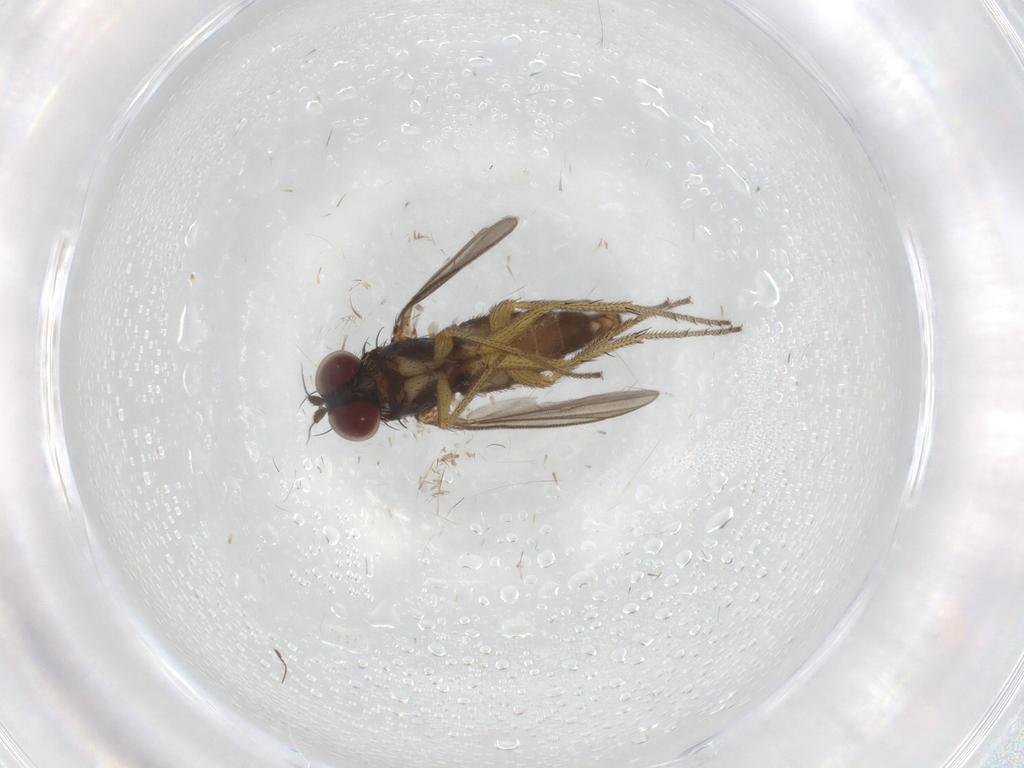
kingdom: Animalia
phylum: Arthropoda
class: Insecta
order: Diptera
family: Dolichopodidae
